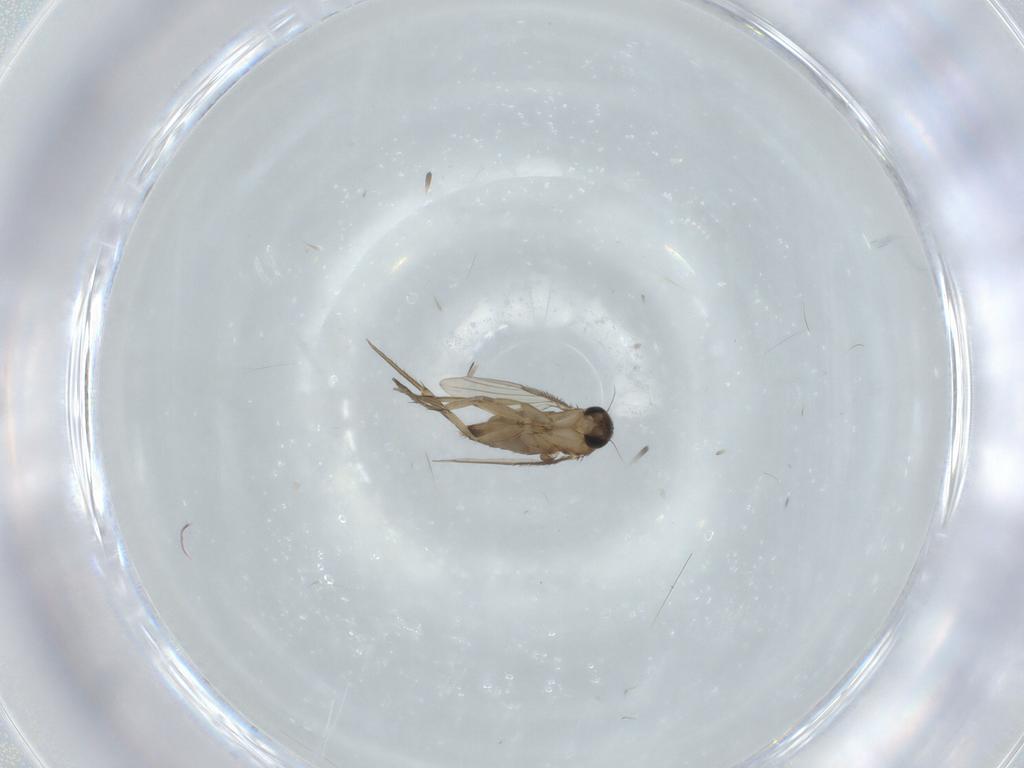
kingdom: Animalia
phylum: Arthropoda
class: Insecta
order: Diptera
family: Phoridae
